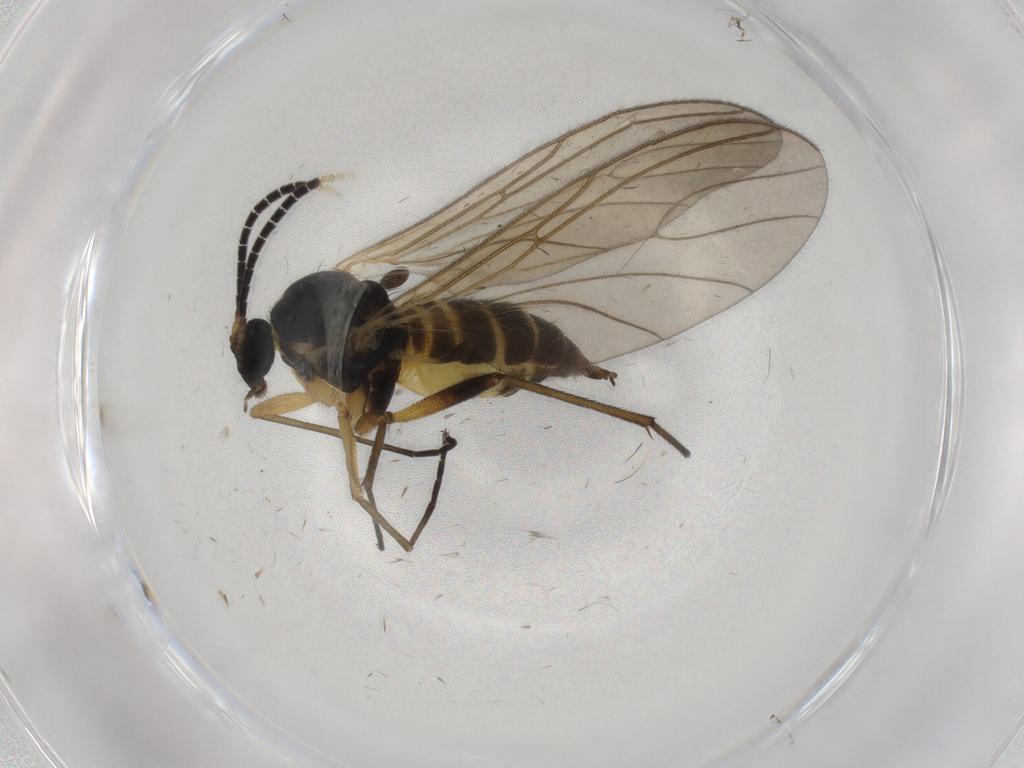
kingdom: Animalia
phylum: Arthropoda
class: Insecta
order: Diptera
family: Sciaridae
